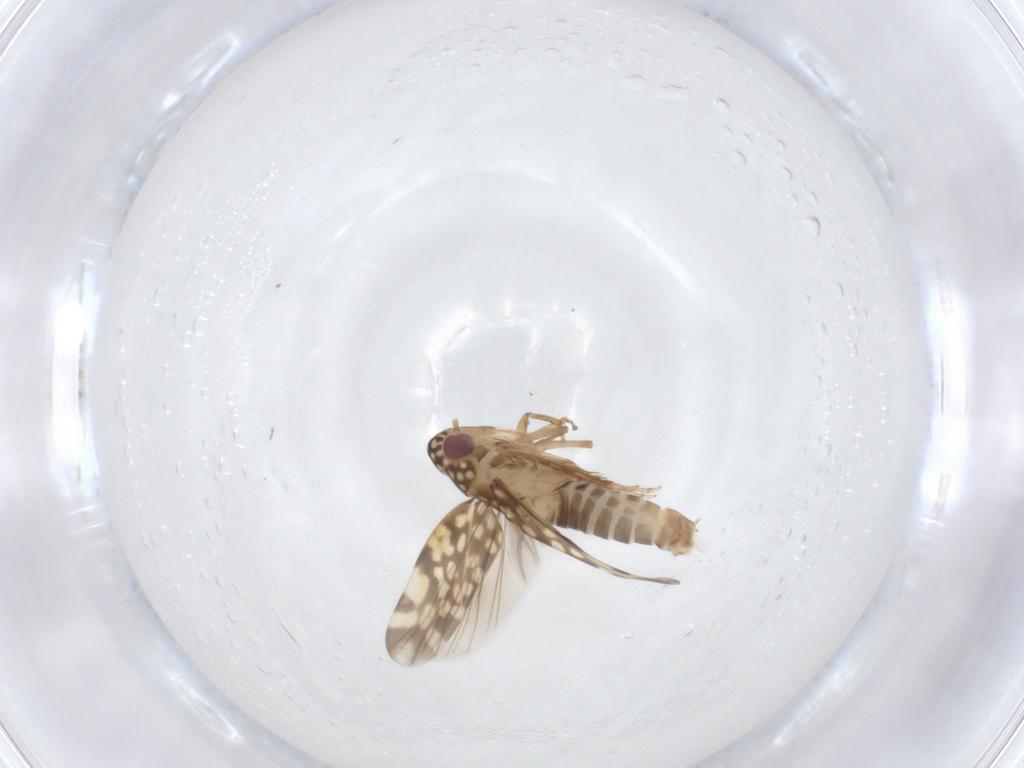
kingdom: Animalia
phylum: Arthropoda
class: Insecta
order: Hemiptera
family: Cicadellidae
